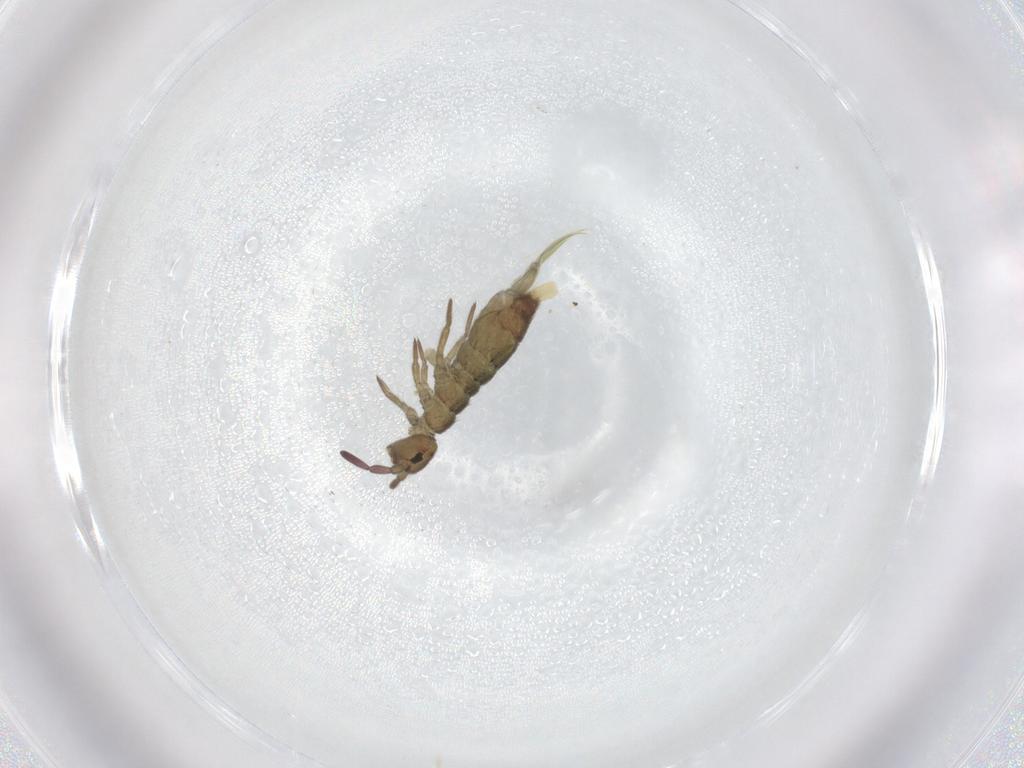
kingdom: Animalia
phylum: Arthropoda
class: Collembola
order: Entomobryomorpha
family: Isotomidae
